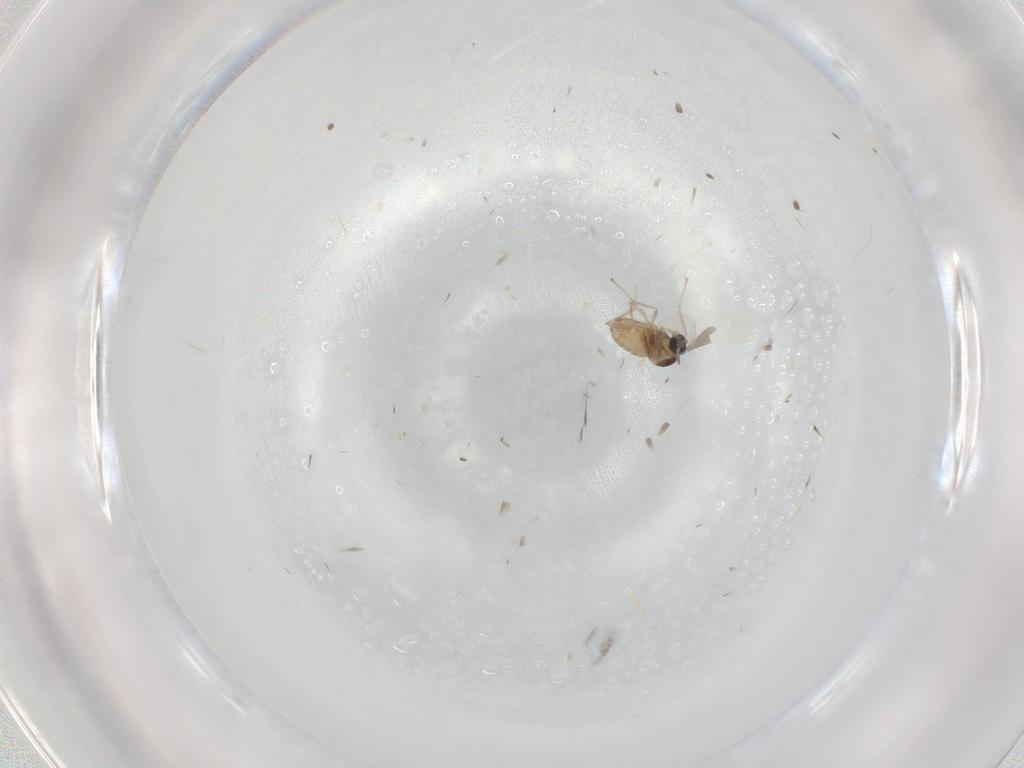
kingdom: Animalia
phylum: Arthropoda
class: Insecta
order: Diptera
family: Cecidomyiidae
